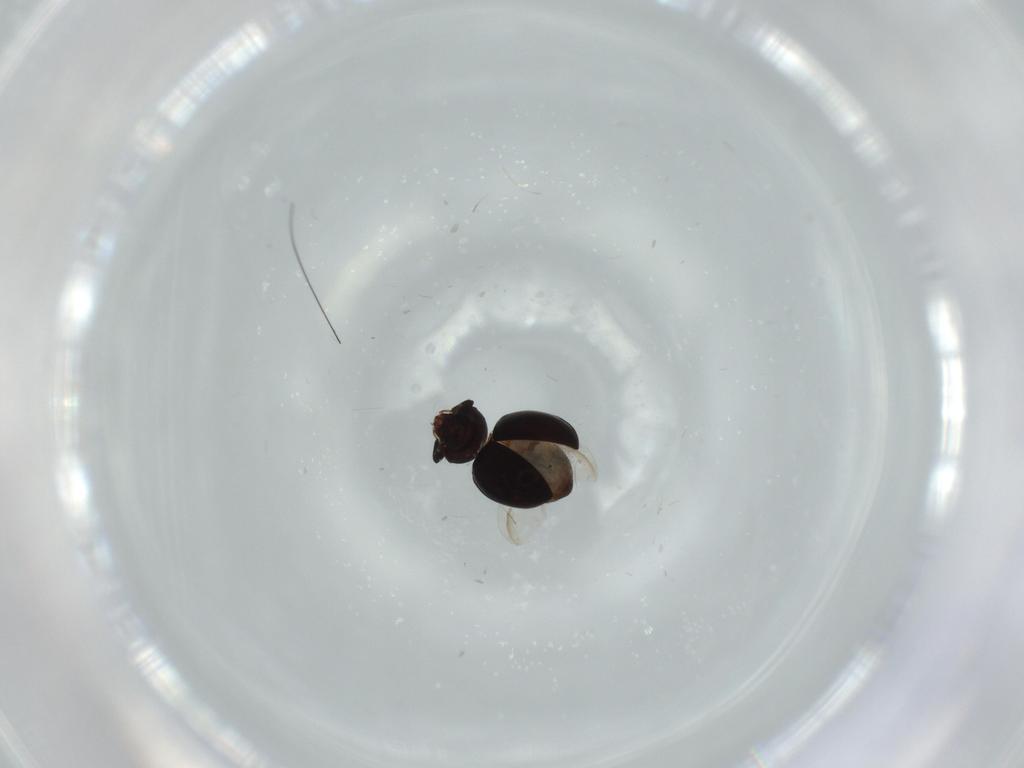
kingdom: Animalia
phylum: Arthropoda
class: Insecta
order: Coleoptera
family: Coccinellidae
